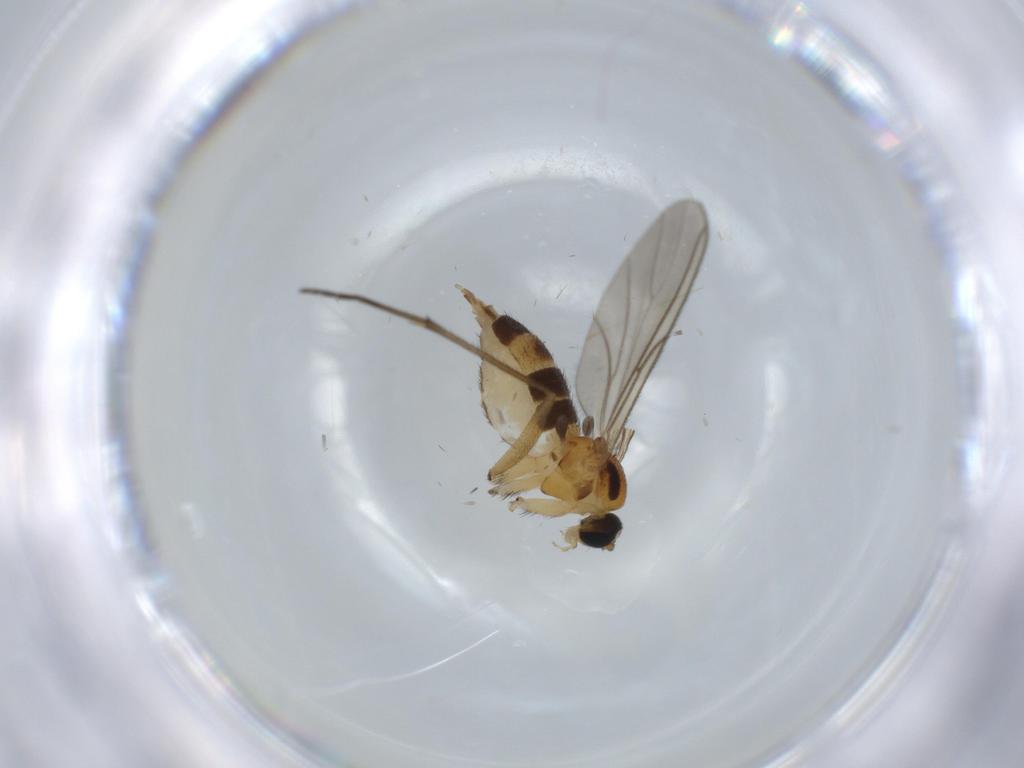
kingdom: Animalia
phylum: Arthropoda
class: Insecta
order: Diptera
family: Sciaridae
